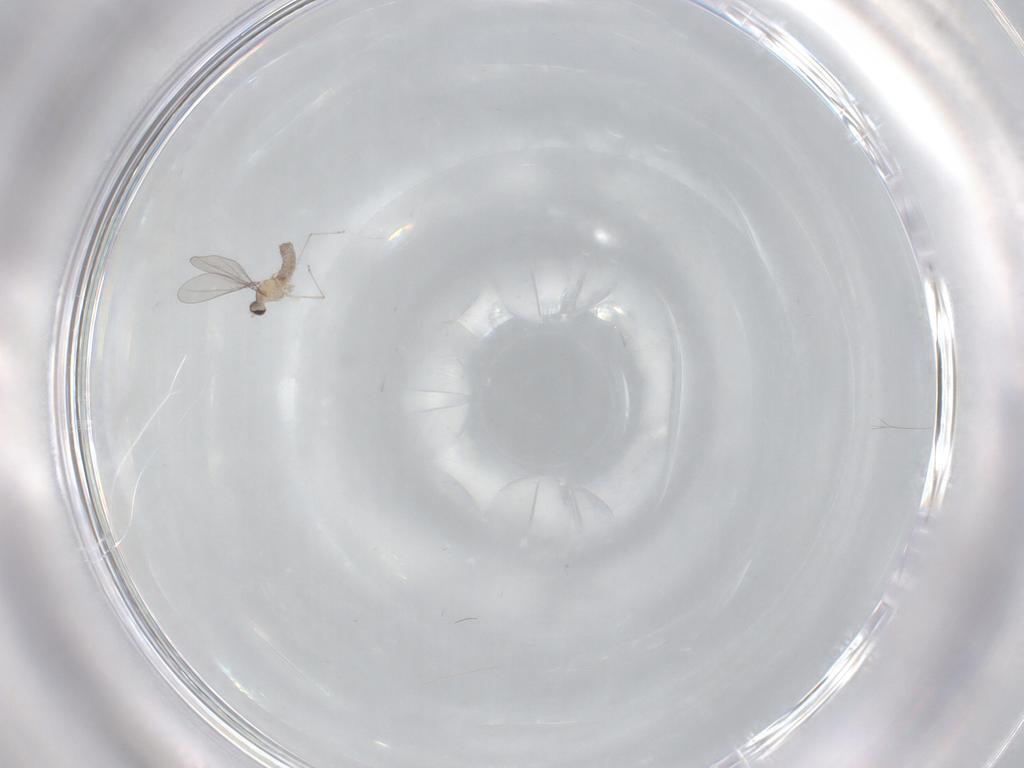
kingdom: Animalia
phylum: Arthropoda
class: Insecta
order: Diptera
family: Cecidomyiidae
